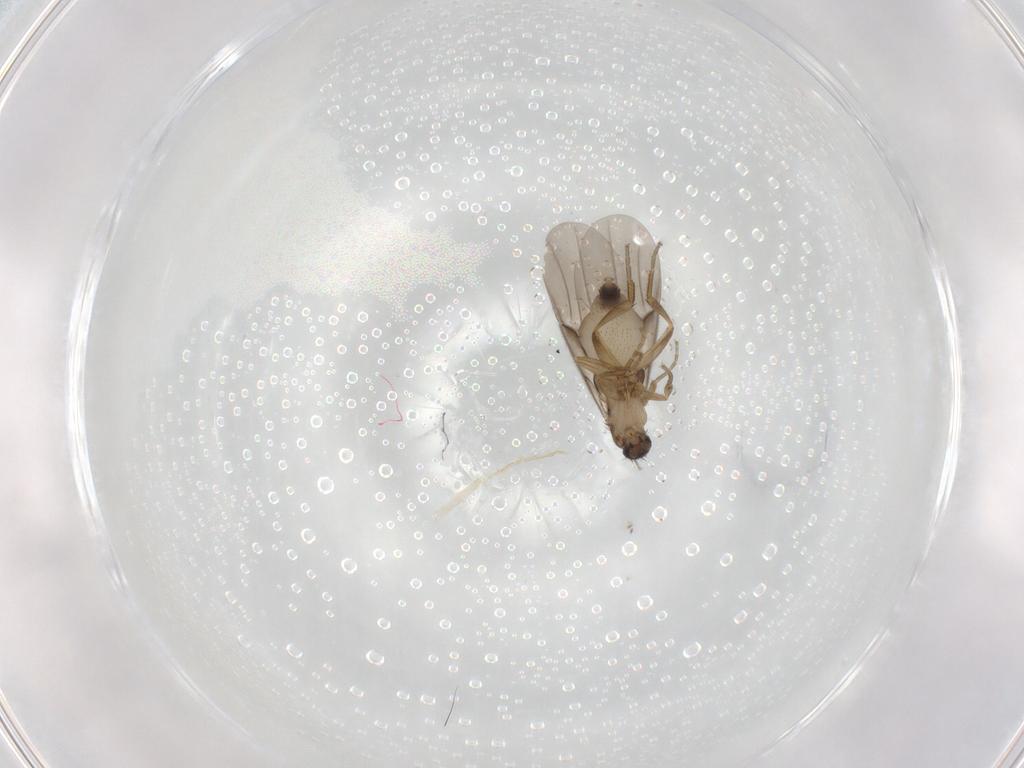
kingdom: Animalia
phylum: Arthropoda
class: Insecta
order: Diptera
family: Phoridae
